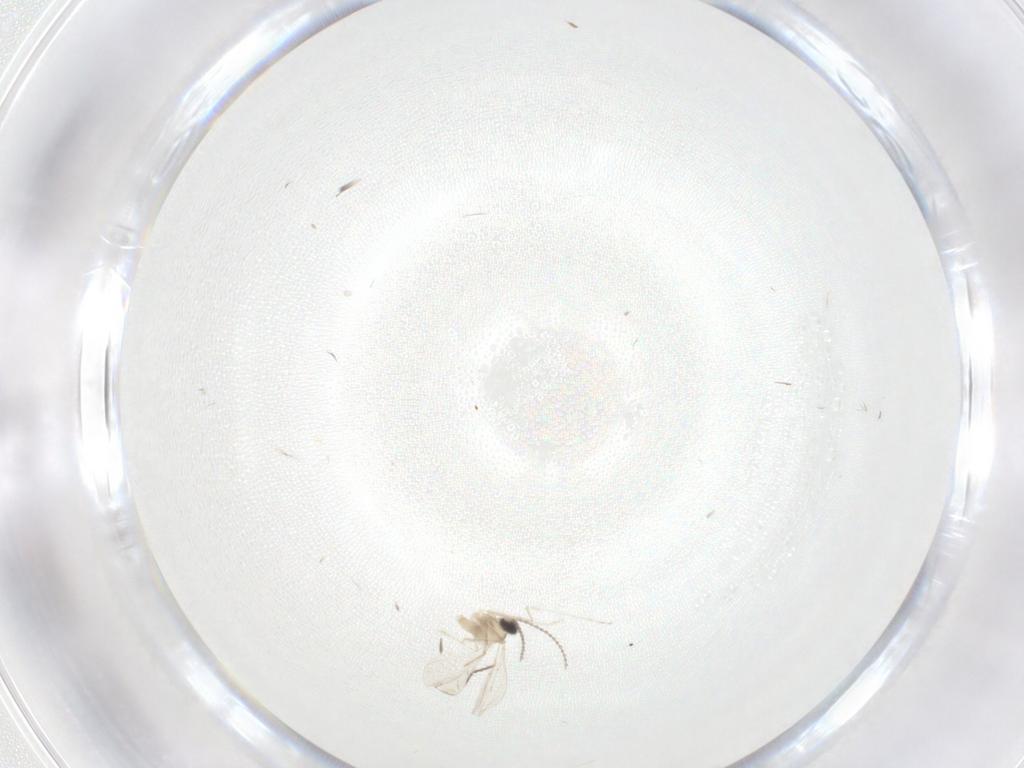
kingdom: Animalia
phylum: Arthropoda
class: Insecta
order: Diptera
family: Chironomidae
